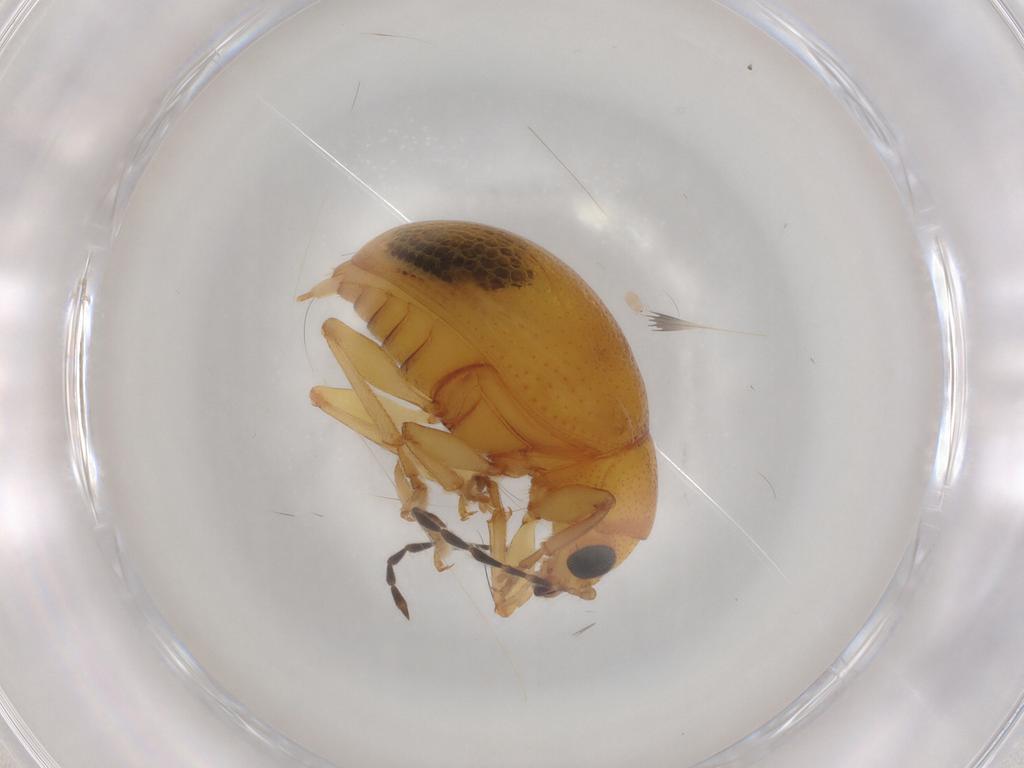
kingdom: Animalia
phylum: Arthropoda
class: Insecta
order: Coleoptera
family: Chrysomelidae
